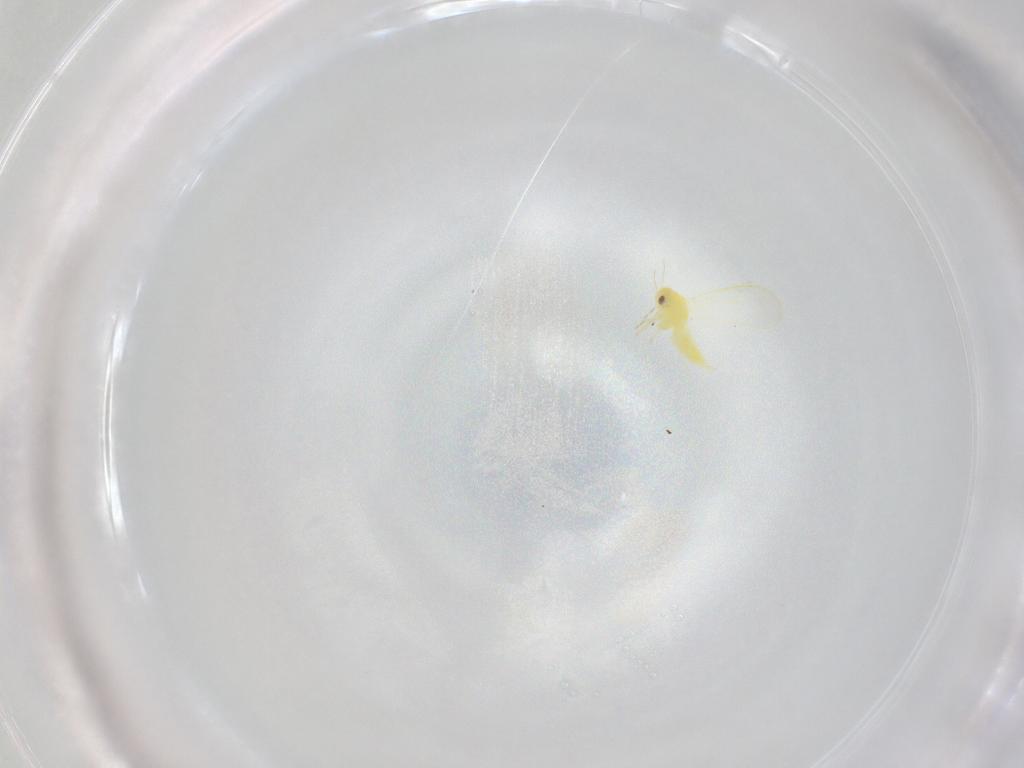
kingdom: Animalia
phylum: Arthropoda
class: Insecta
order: Hemiptera
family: Aleyrodidae
